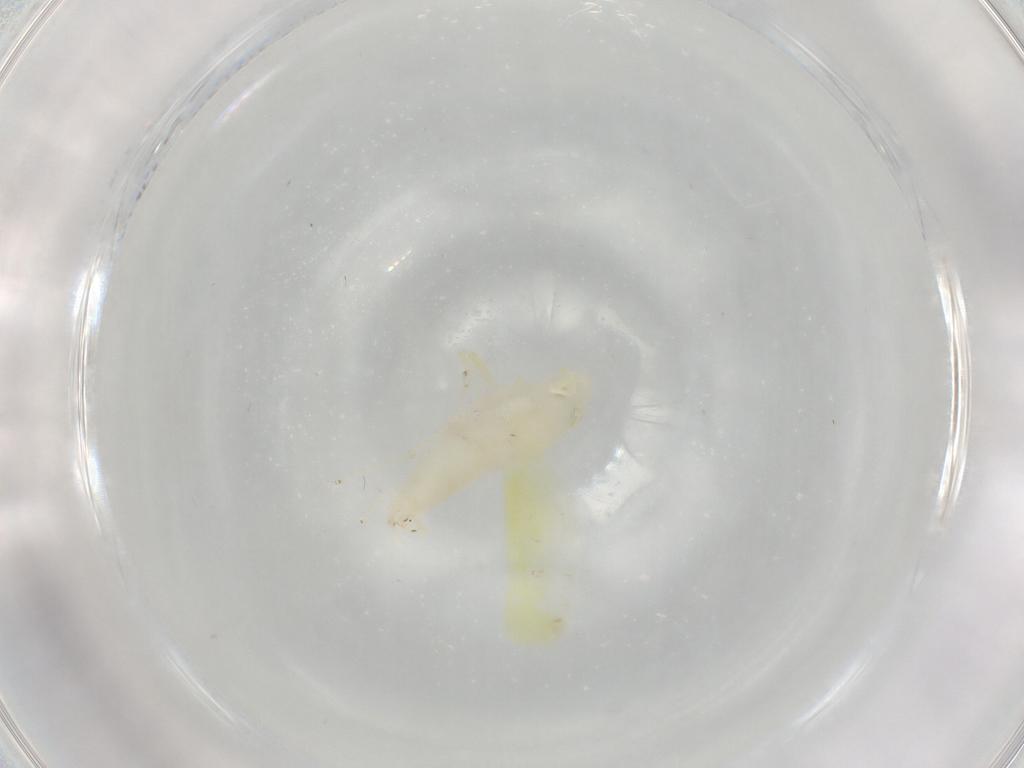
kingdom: Animalia
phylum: Arthropoda
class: Insecta
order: Hemiptera
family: Cicadellidae
